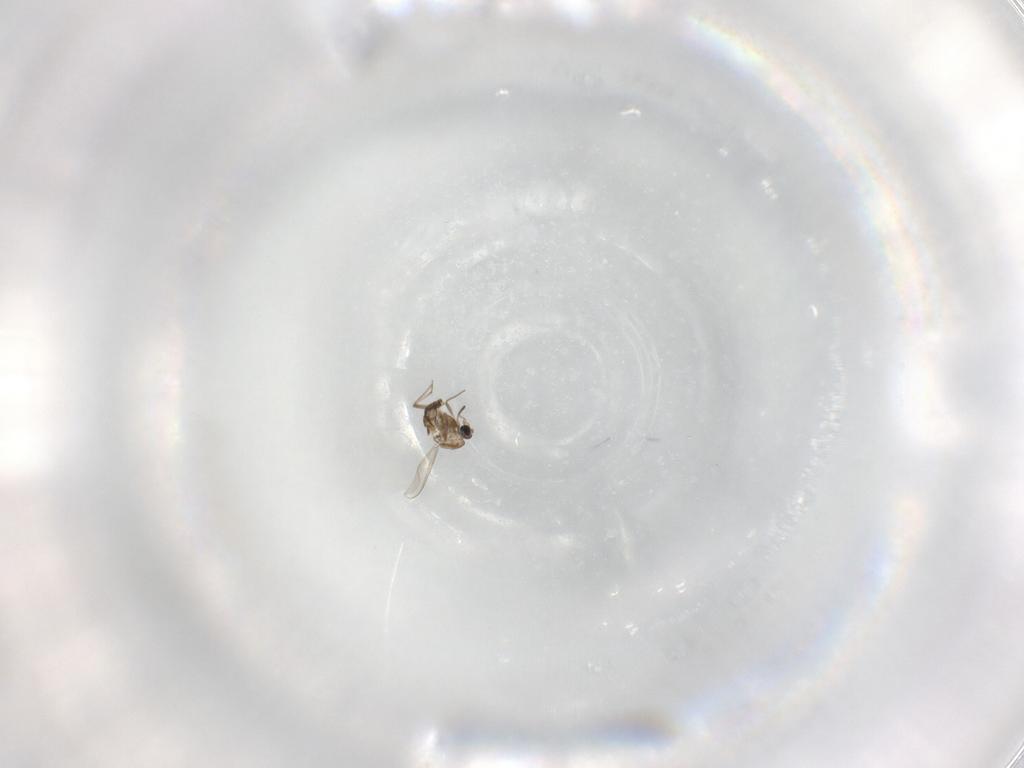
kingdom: Animalia
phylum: Arthropoda
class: Insecta
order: Diptera
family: Chironomidae
